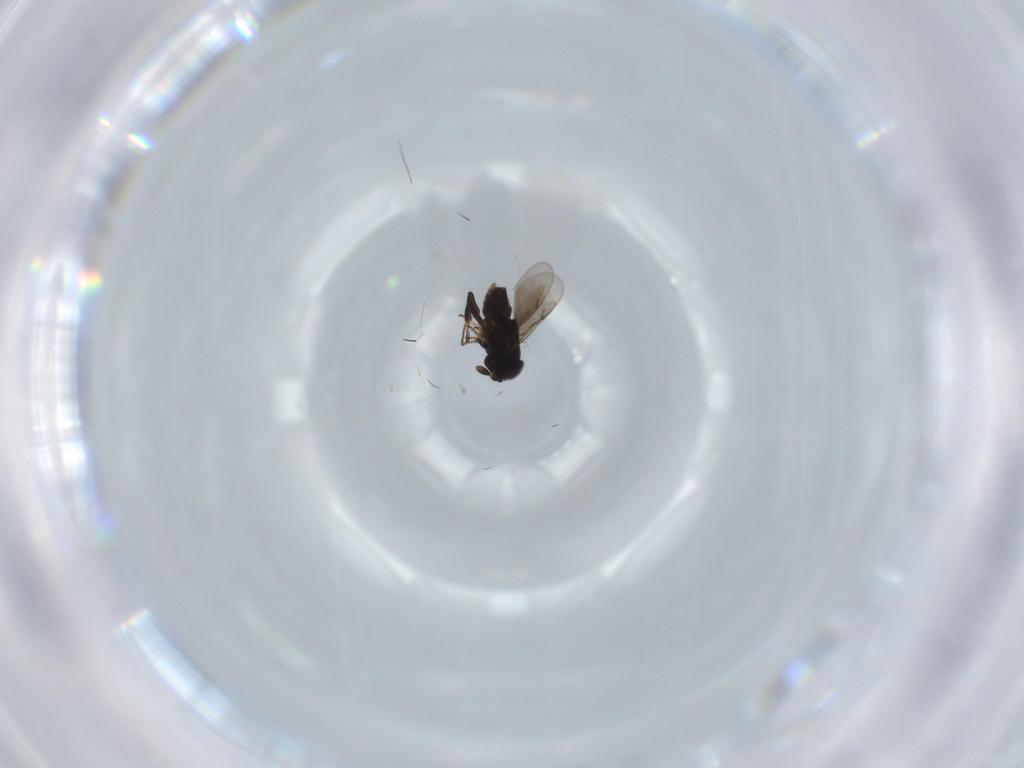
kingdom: Animalia
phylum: Arthropoda
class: Insecta
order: Hymenoptera
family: Encyrtidae
